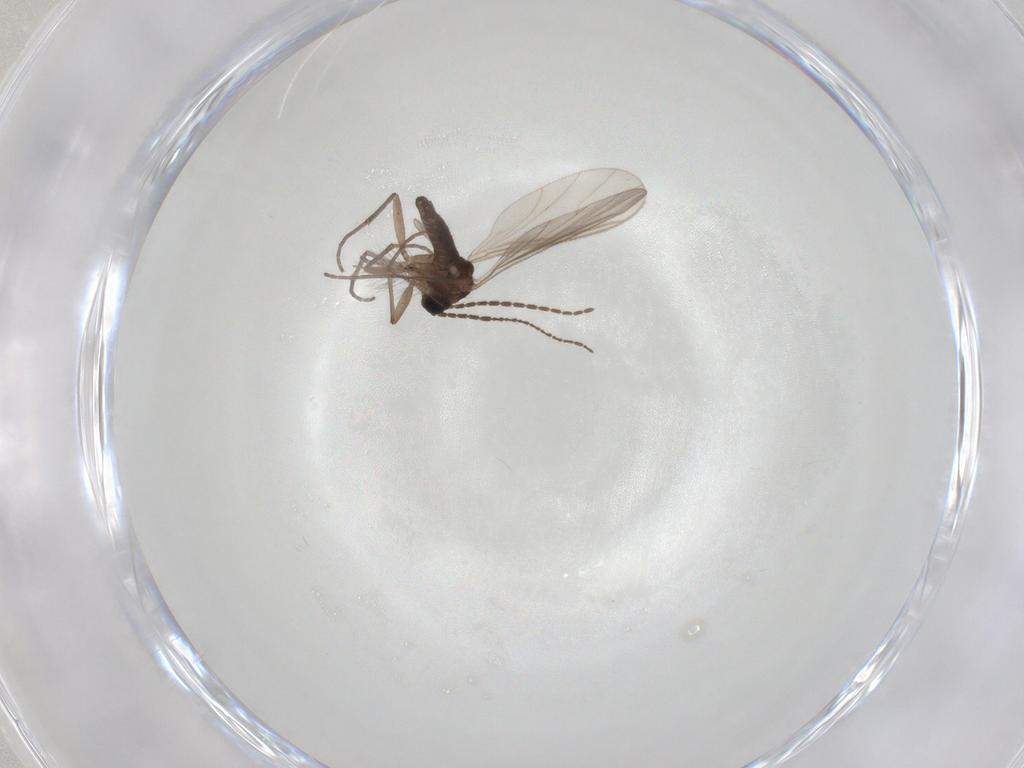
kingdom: Animalia
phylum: Arthropoda
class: Insecta
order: Diptera
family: Sciaridae
